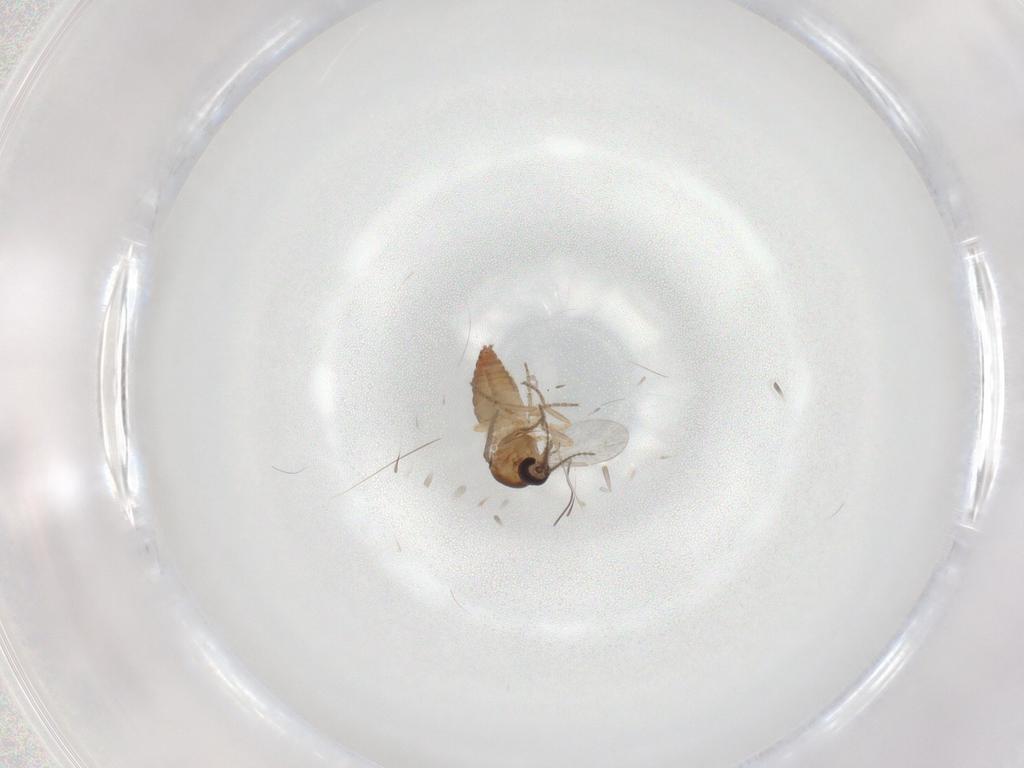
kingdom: Animalia
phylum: Arthropoda
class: Insecta
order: Diptera
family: Ceratopogonidae
